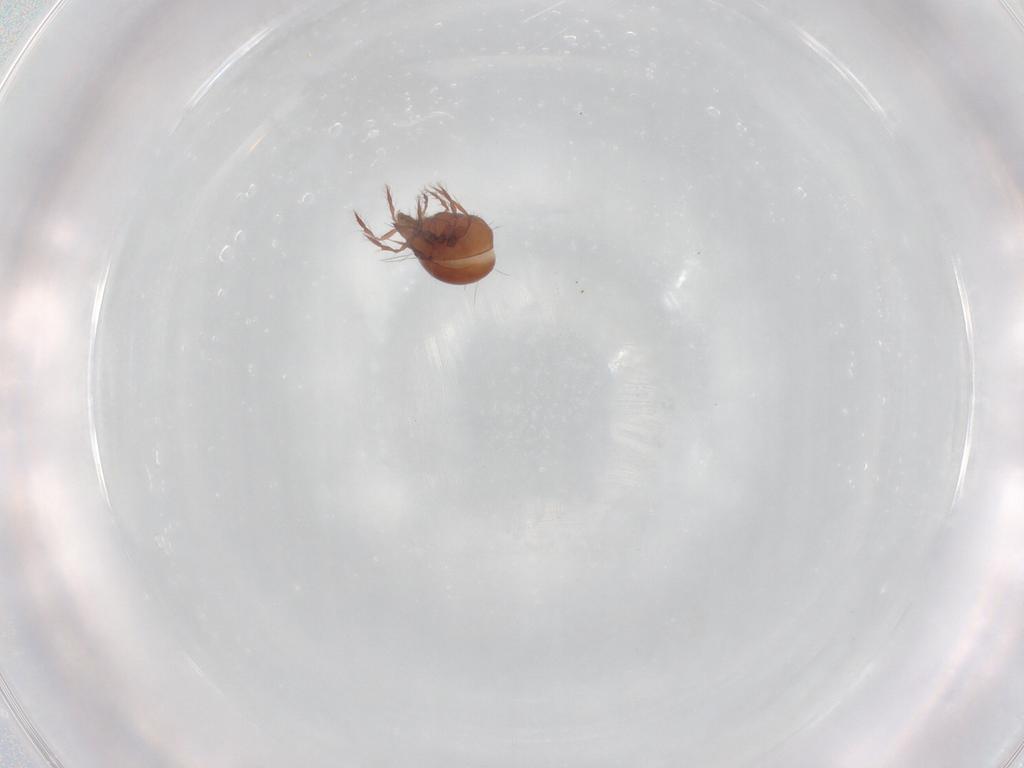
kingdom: Animalia
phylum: Arthropoda
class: Arachnida
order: Sarcoptiformes
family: Ceratoppiidae
